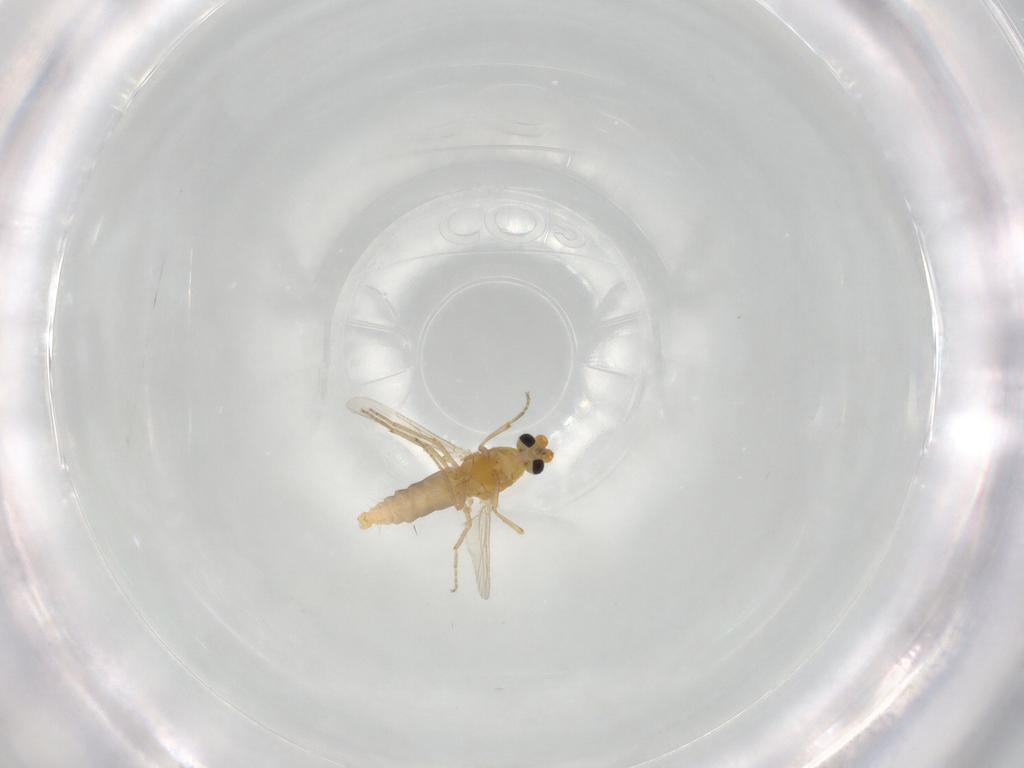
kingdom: Animalia
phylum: Arthropoda
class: Insecta
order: Diptera
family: Ceratopogonidae
